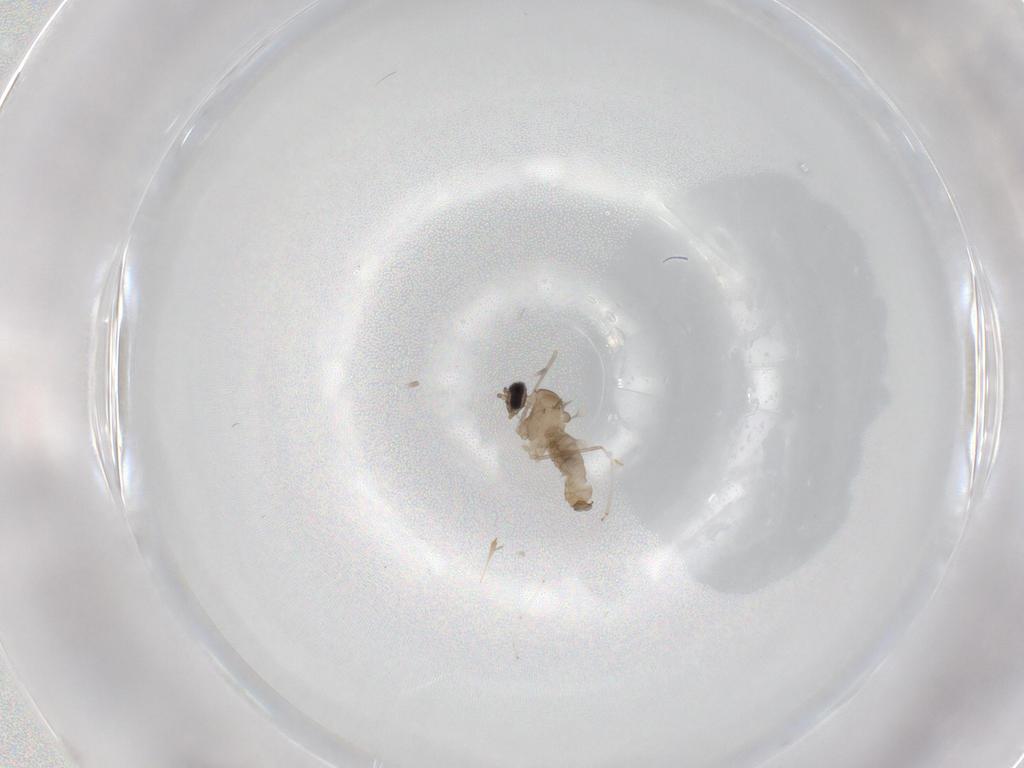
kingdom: Animalia
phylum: Arthropoda
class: Insecta
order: Diptera
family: Cecidomyiidae
